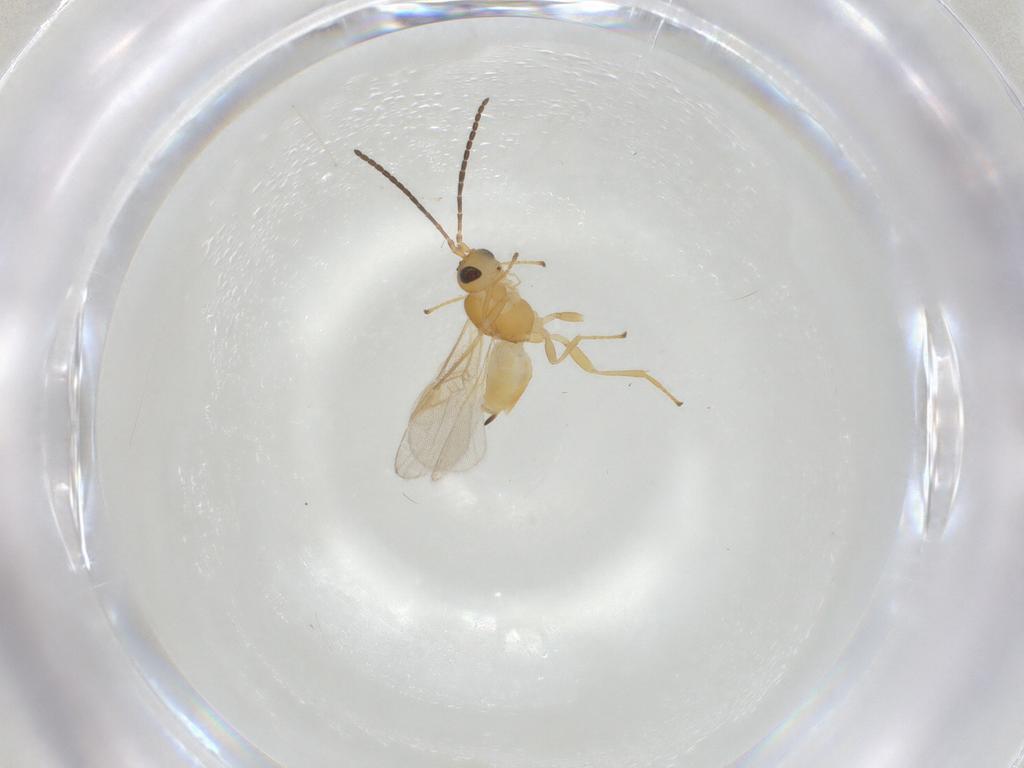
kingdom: Animalia
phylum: Arthropoda
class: Insecta
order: Hymenoptera
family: Braconidae
